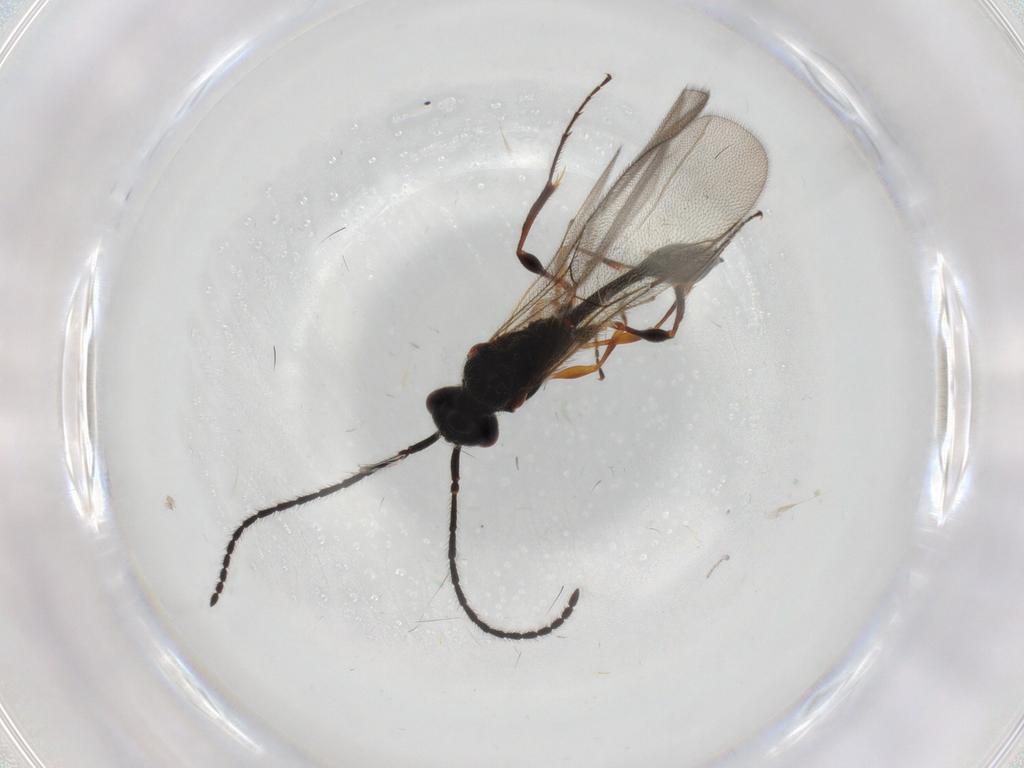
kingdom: Animalia
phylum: Arthropoda
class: Insecta
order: Hymenoptera
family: Diapriidae
